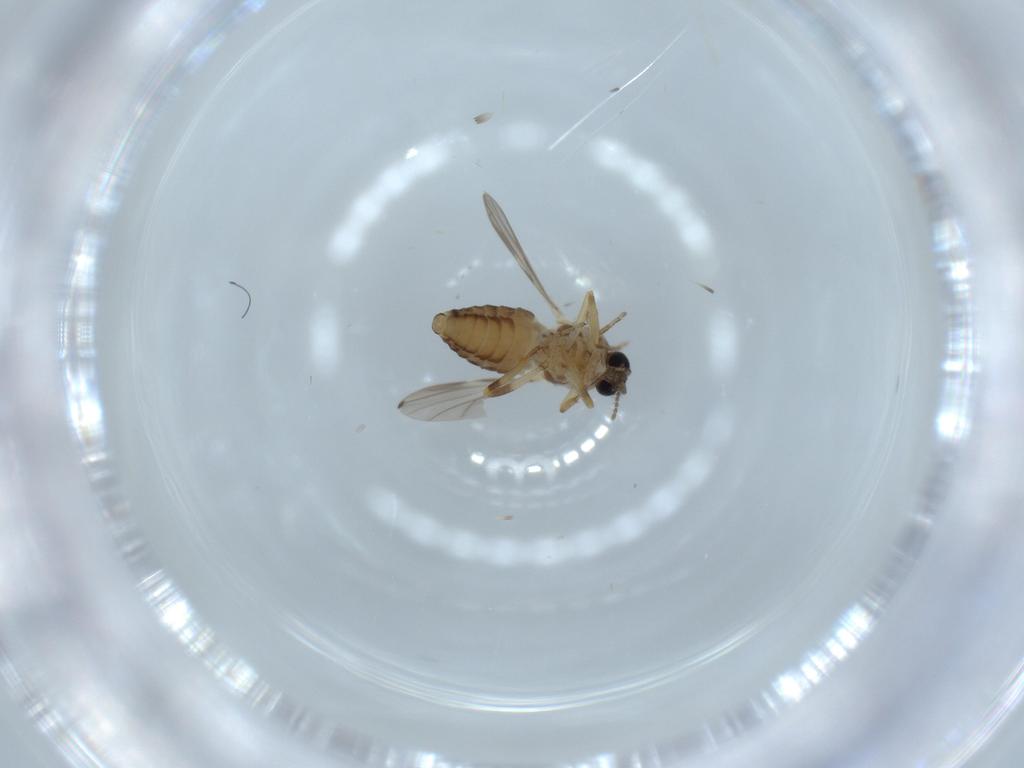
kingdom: Animalia
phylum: Arthropoda
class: Insecta
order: Diptera
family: Ceratopogonidae
